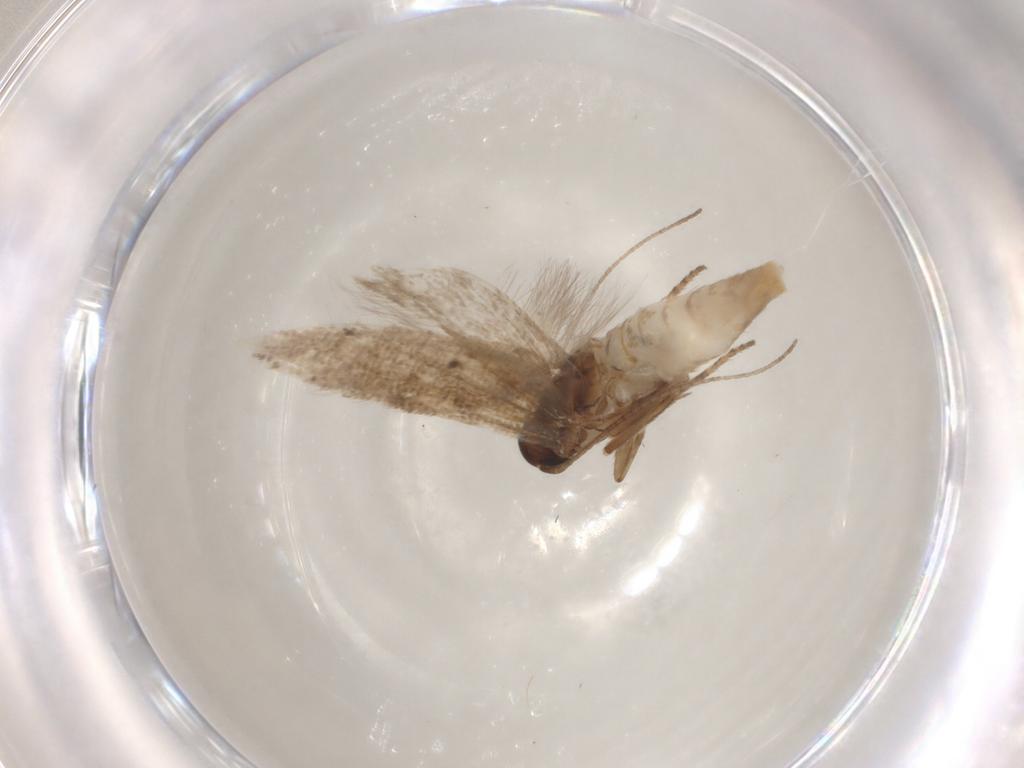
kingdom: Animalia
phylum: Arthropoda
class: Insecta
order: Lepidoptera
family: Gelechiidae
